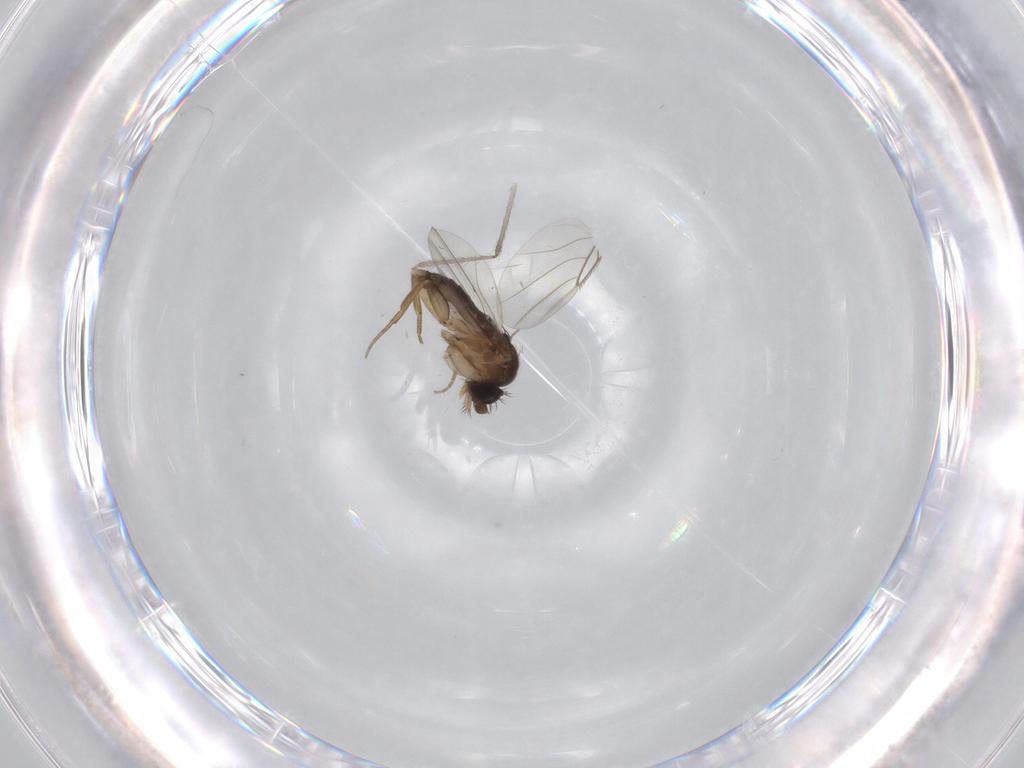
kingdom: Animalia
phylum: Arthropoda
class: Insecta
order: Diptera
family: Phoridae
